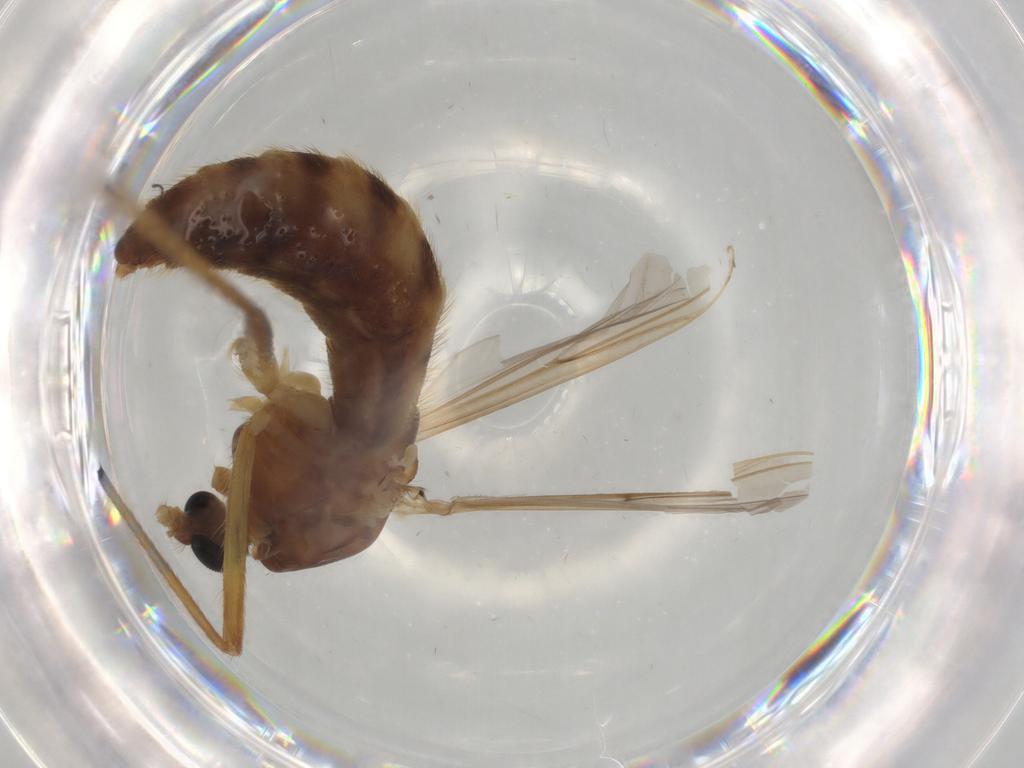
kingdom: Animalia
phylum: Arthropoda
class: Insecta
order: Diptera
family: Chironomidae
